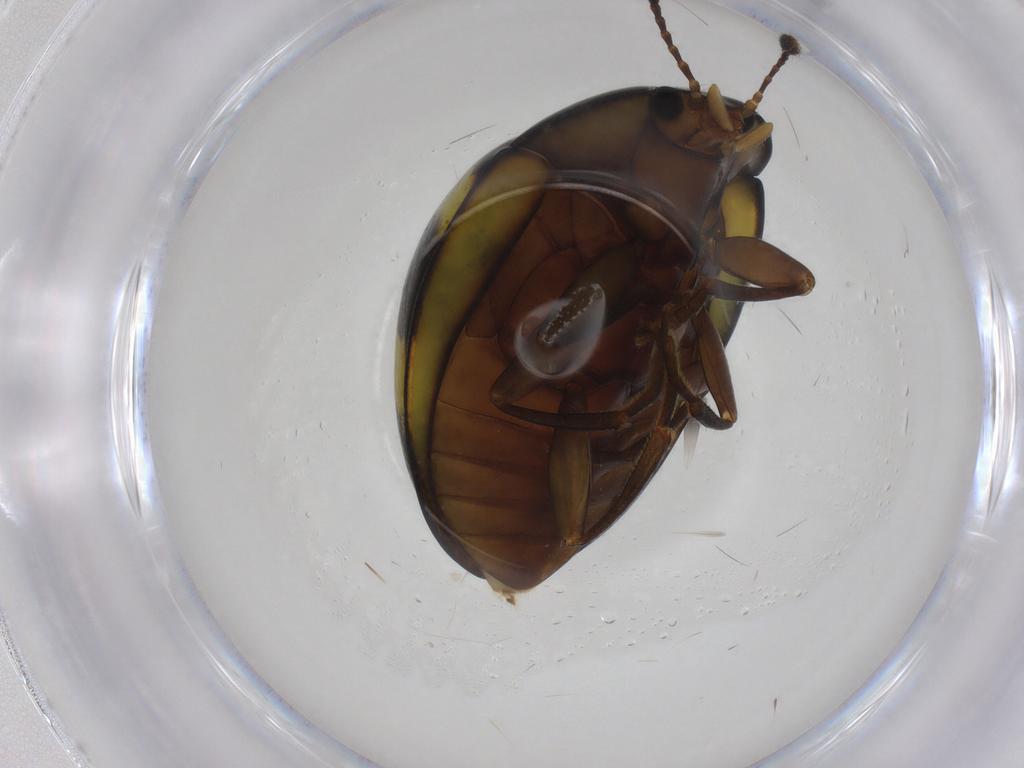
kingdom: Animalia
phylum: Arthropoda
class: Insecta
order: Coleoptera
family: Erotylidae
